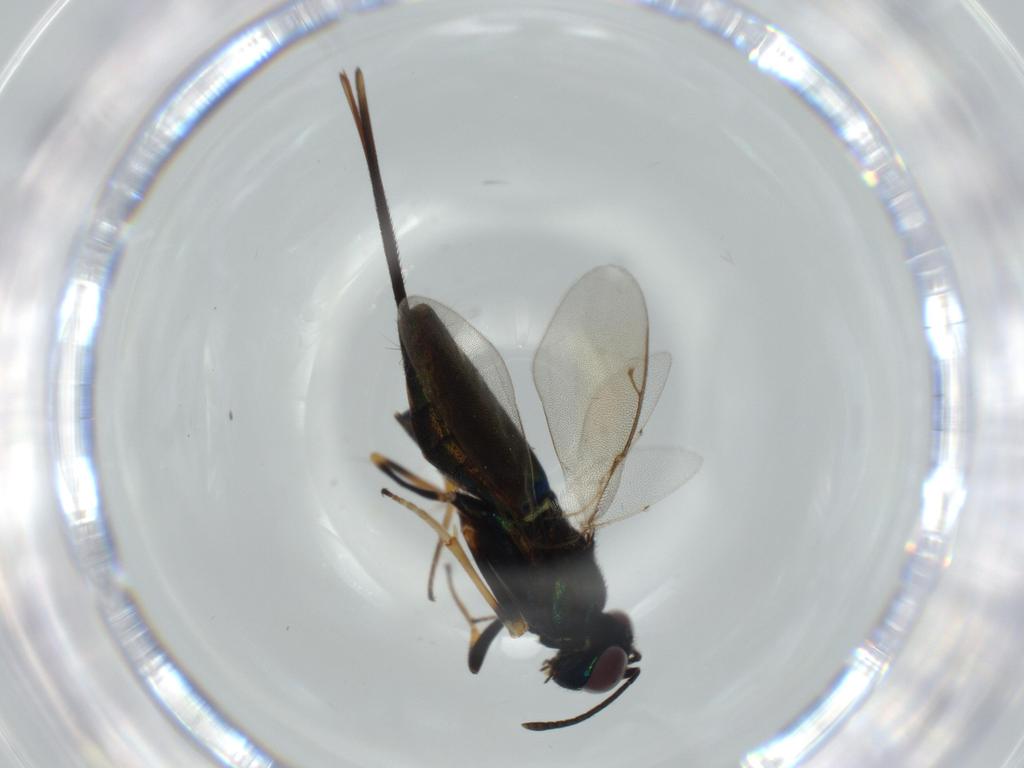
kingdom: Animalia
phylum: Arthropoda
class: Insecta
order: Hymenoptera
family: Eupelmidae
